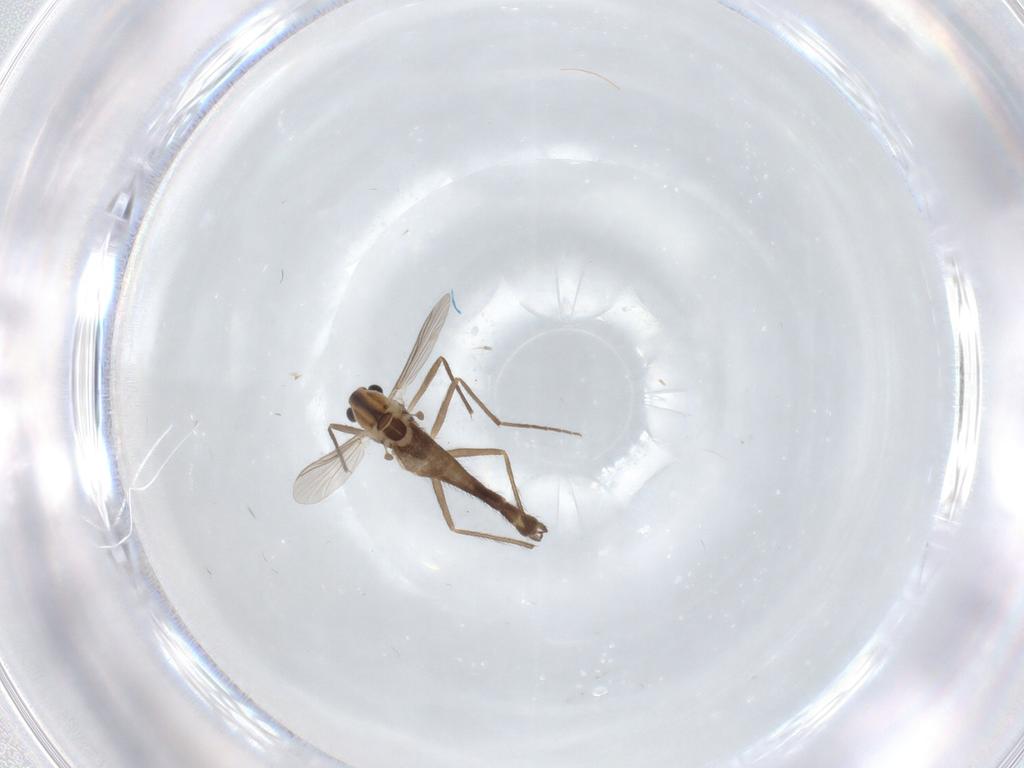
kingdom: Animalia
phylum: Arthropoda
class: Insecta
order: Diptera
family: Chironomidae
